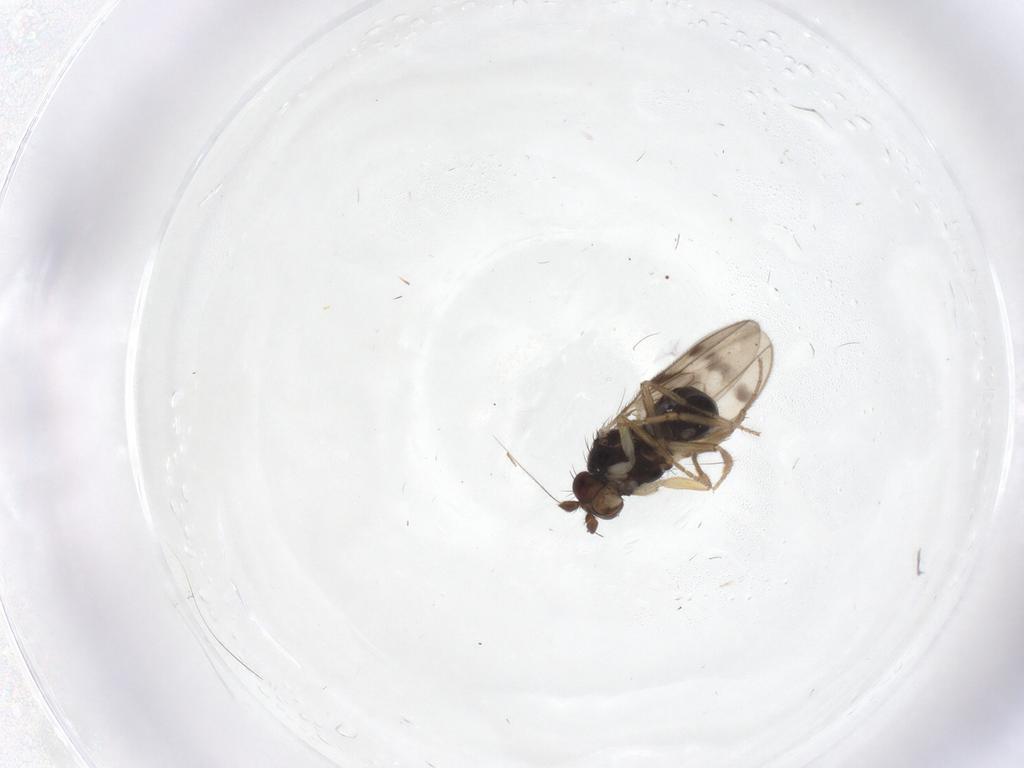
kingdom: Animalia
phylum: Arthropoda
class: Insecta
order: Diptera
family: Sphaeroceridae
